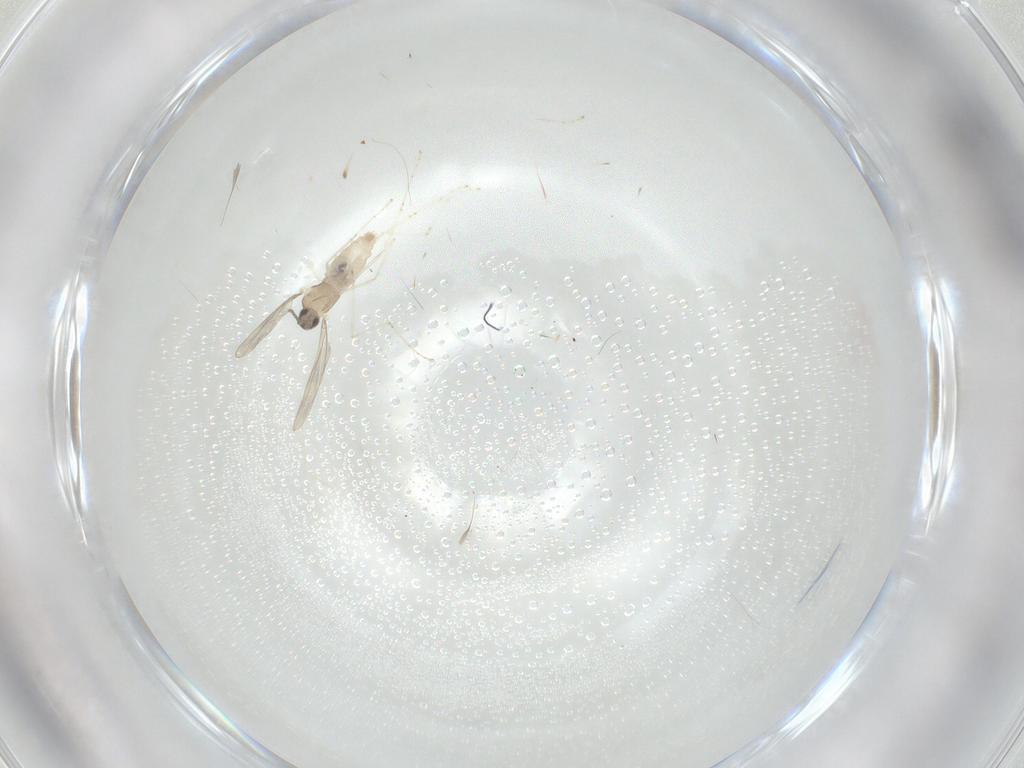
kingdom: Animalia
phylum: Arthropoda
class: Insecta
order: Diptera
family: Cecidomyiidae
